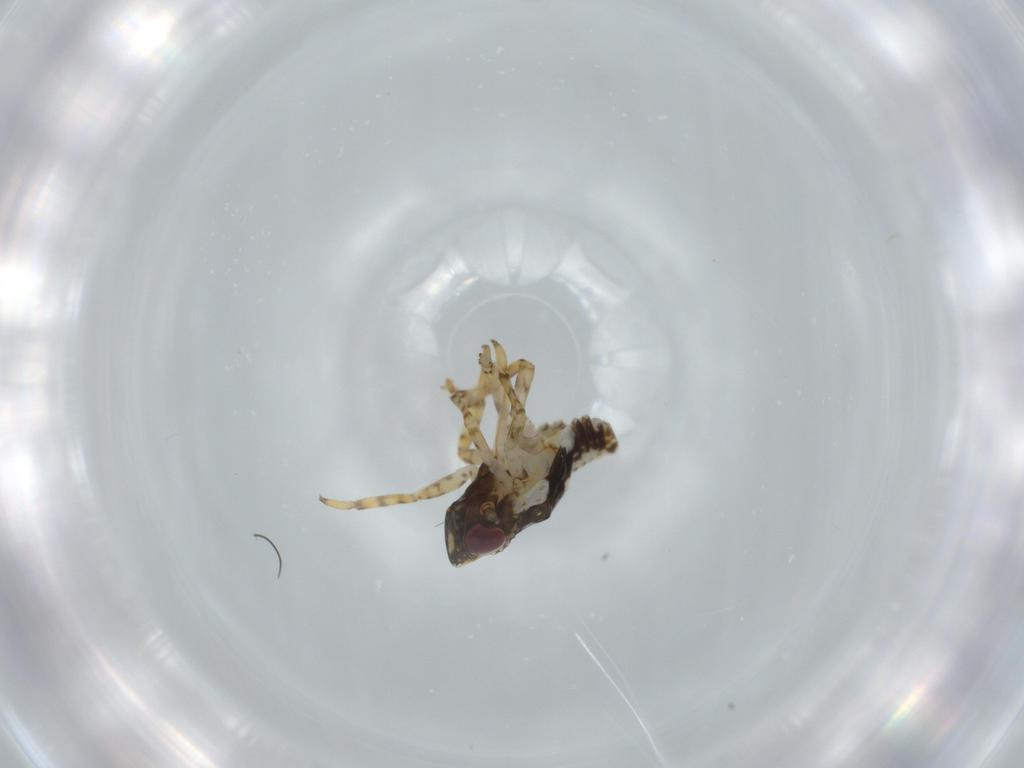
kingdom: Animalia
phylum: Arthropoda
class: Insecta
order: Hemiptera
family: Issidae
